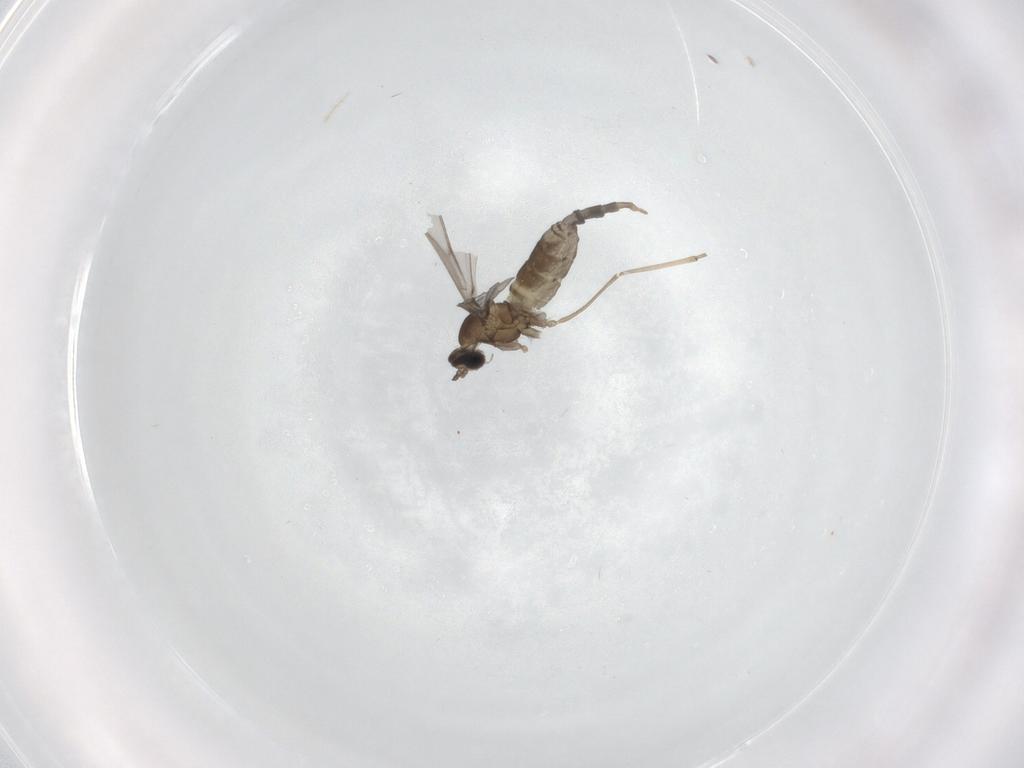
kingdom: Animalia
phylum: Arthropoda
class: Insecta
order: Diptera
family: Cecidomyiidae
